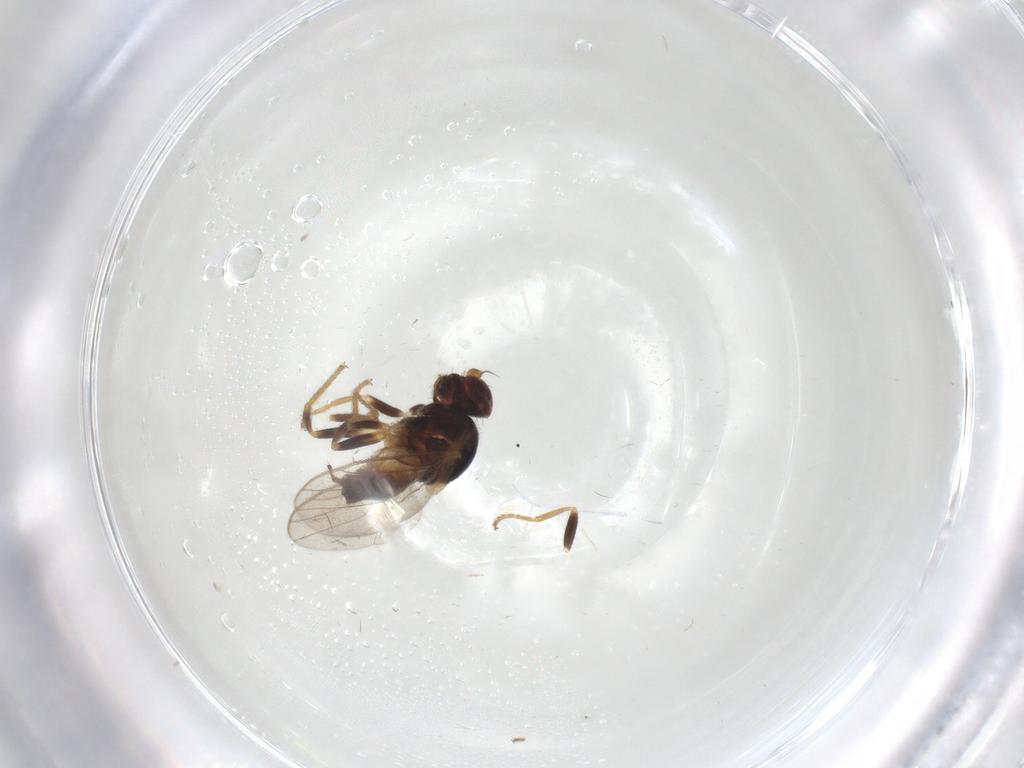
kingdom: Animalia
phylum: Arthropoda
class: Insecta
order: Diptera
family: Chloropidae
